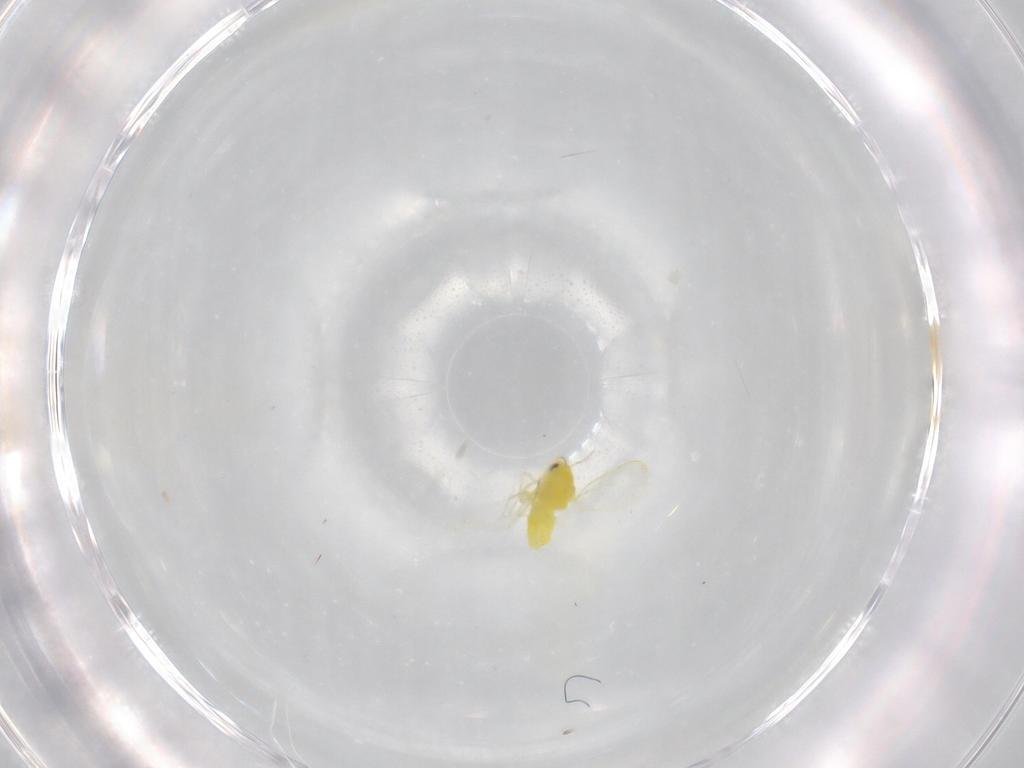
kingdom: Animalia
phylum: Arthropoda
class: Insecta
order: Hemiptera
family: Aleyrodidae
